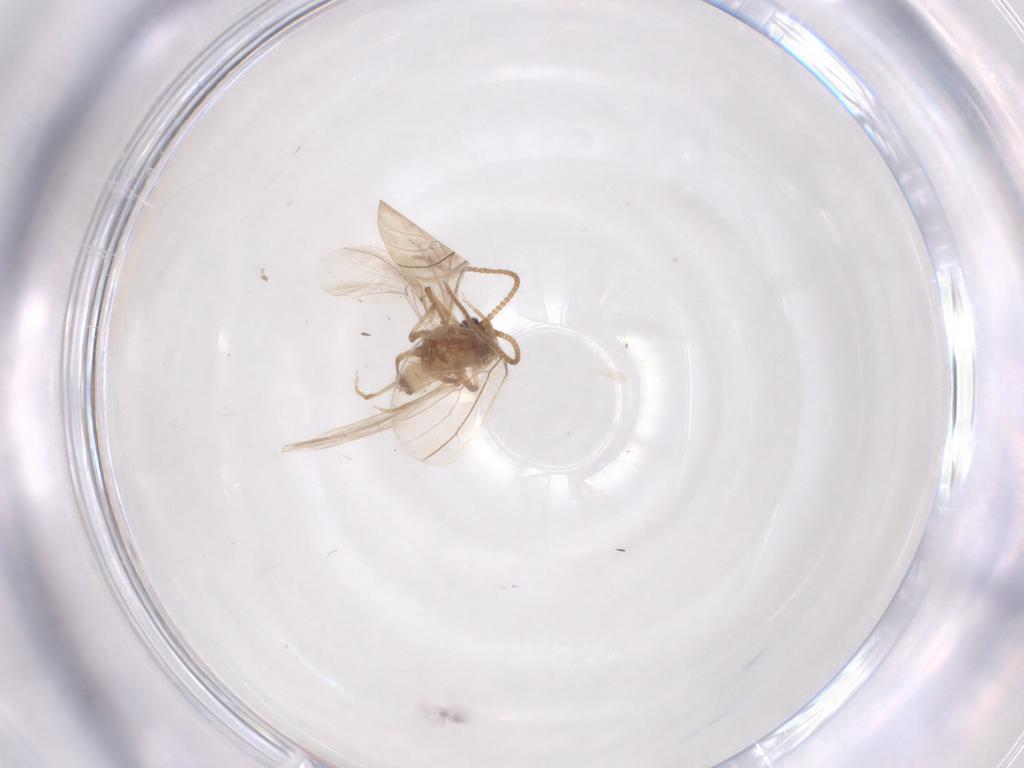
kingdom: Animalia
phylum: Arthropoda
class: Insecta
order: Neuroptera
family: Coniopterygidae
